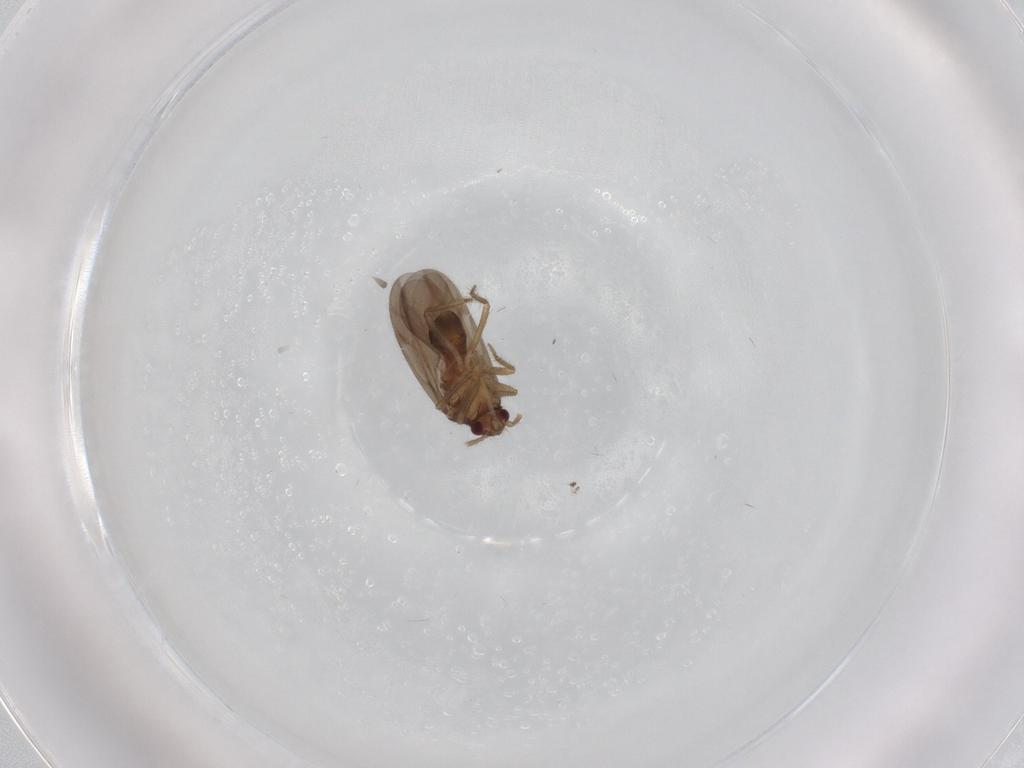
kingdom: Animalia
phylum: Arthropoda
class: Insecta
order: Hemiptera
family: Ceratocombidae
